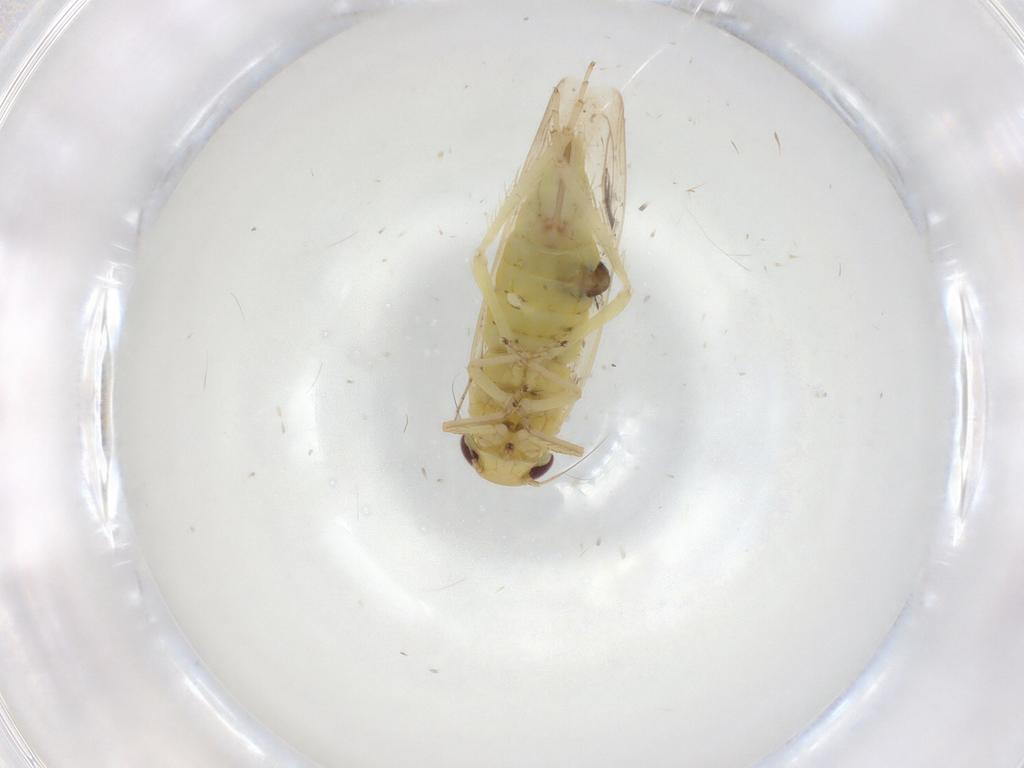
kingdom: Animalia
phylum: Arthropoda
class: Insecta
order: Hemiptera
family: Cicadellidae
